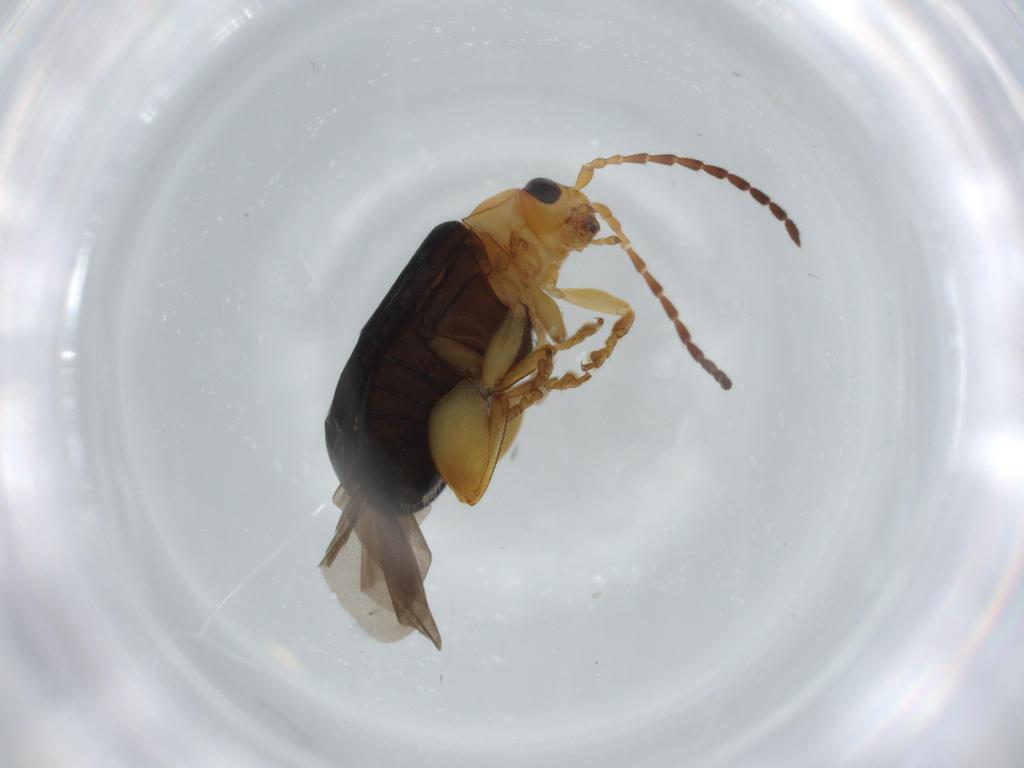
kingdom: Animalia
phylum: Arthropoda
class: Insecta
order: Coleoptera
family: Chrysomelidae
